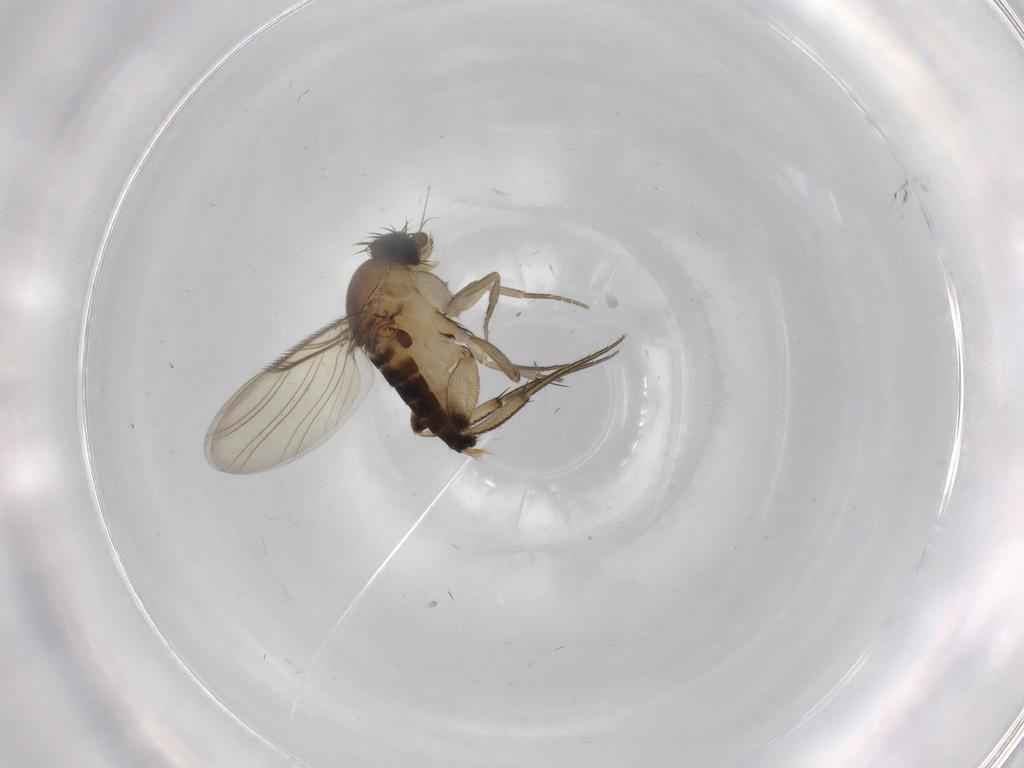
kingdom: Animalia
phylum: Arthropoda
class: Insecta
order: Diptera
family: Phoridae
